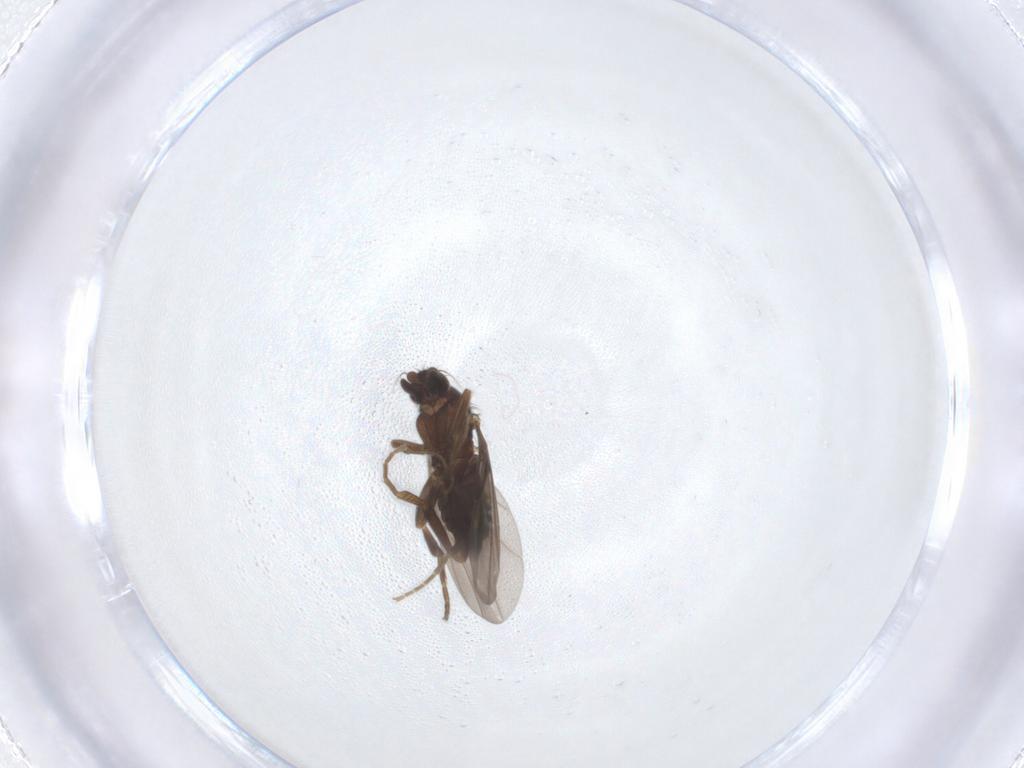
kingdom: Animalia
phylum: Arthropoda
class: Insecta
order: Diptera
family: Phoridae
